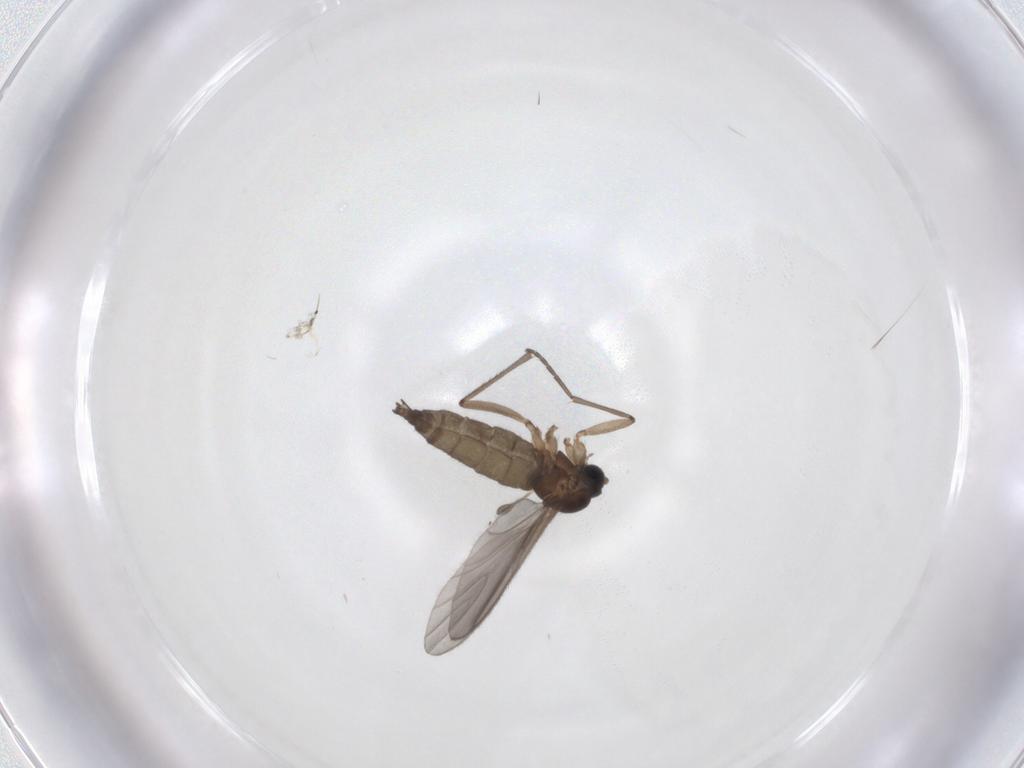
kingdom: Animalia
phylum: Arthropoda
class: Insecta
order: Diptera
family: Sciaridae
